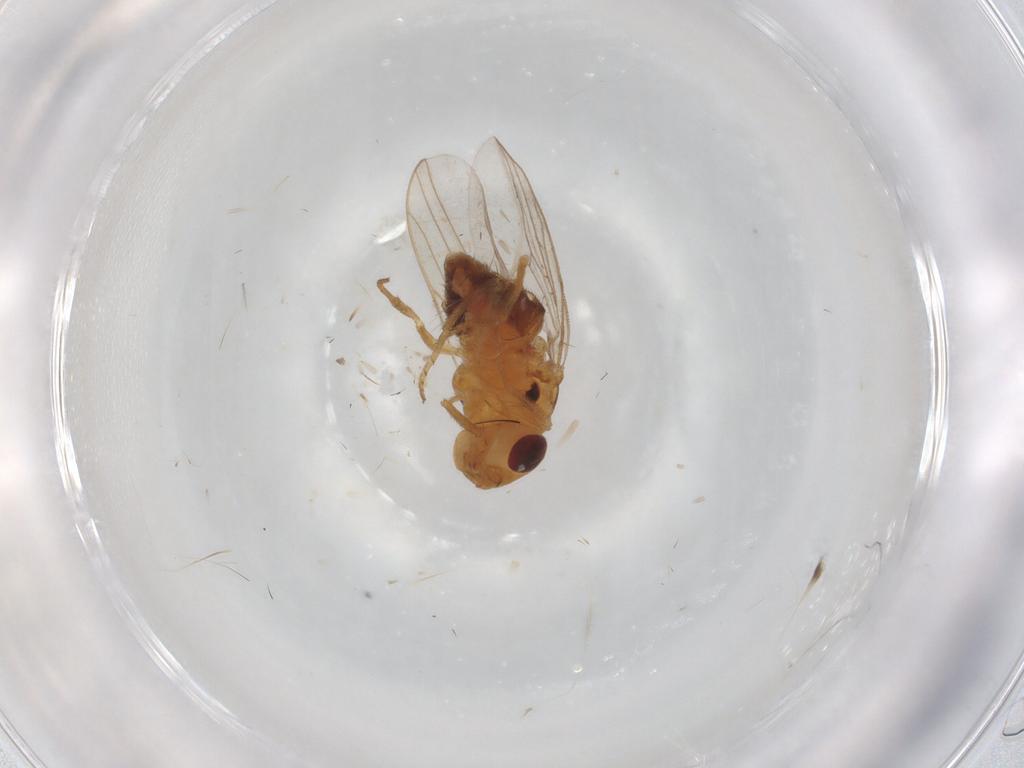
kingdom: Animalia
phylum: Arthropoda
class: Insecta
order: Diptera
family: Chloropidae
